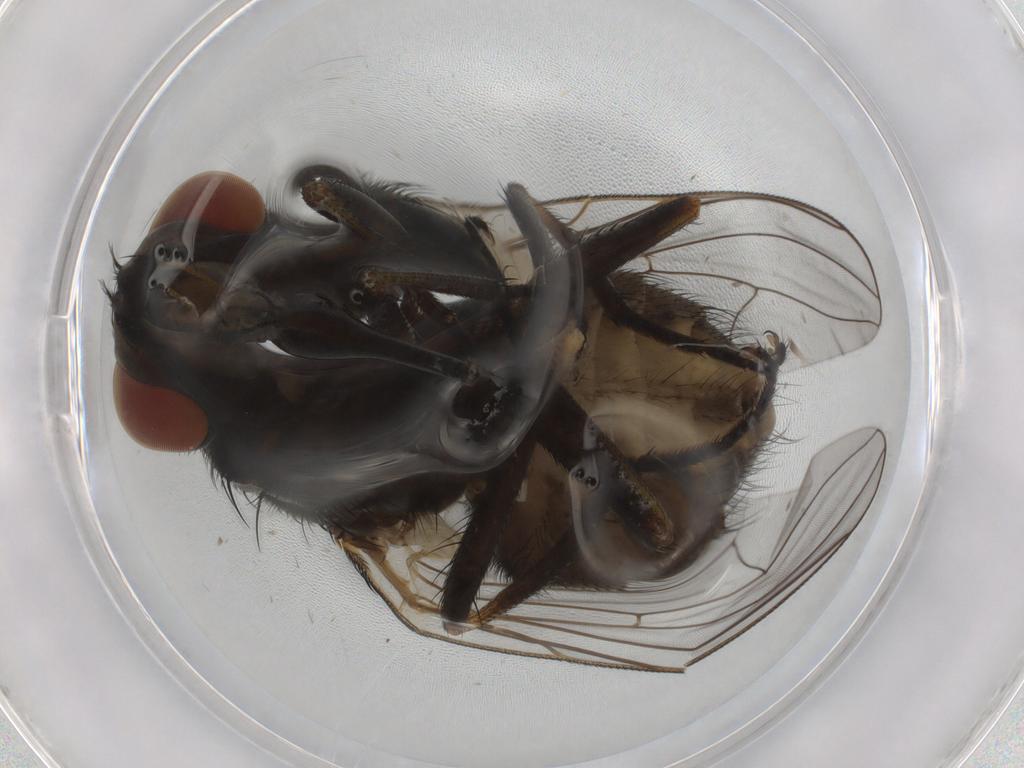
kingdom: Animalia
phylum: Arthropoda
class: Insecta
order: Diptera
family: Muscidae
